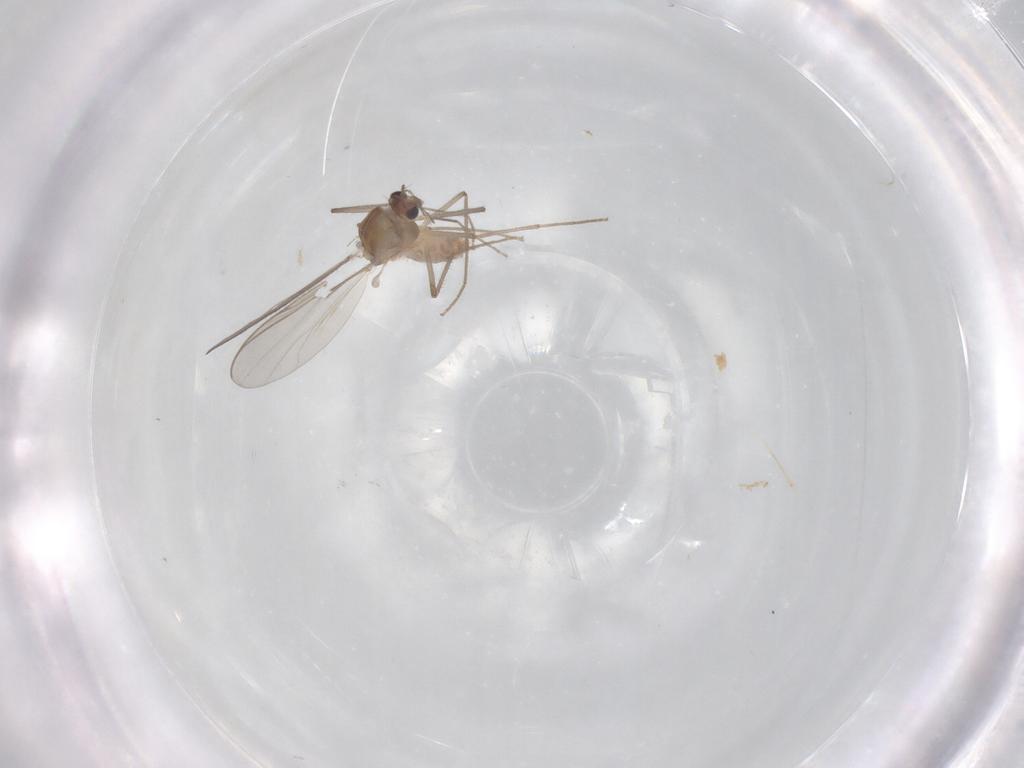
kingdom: Animalia
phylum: Arthropoda
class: Insecta
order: Diptera
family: Chironomidae
